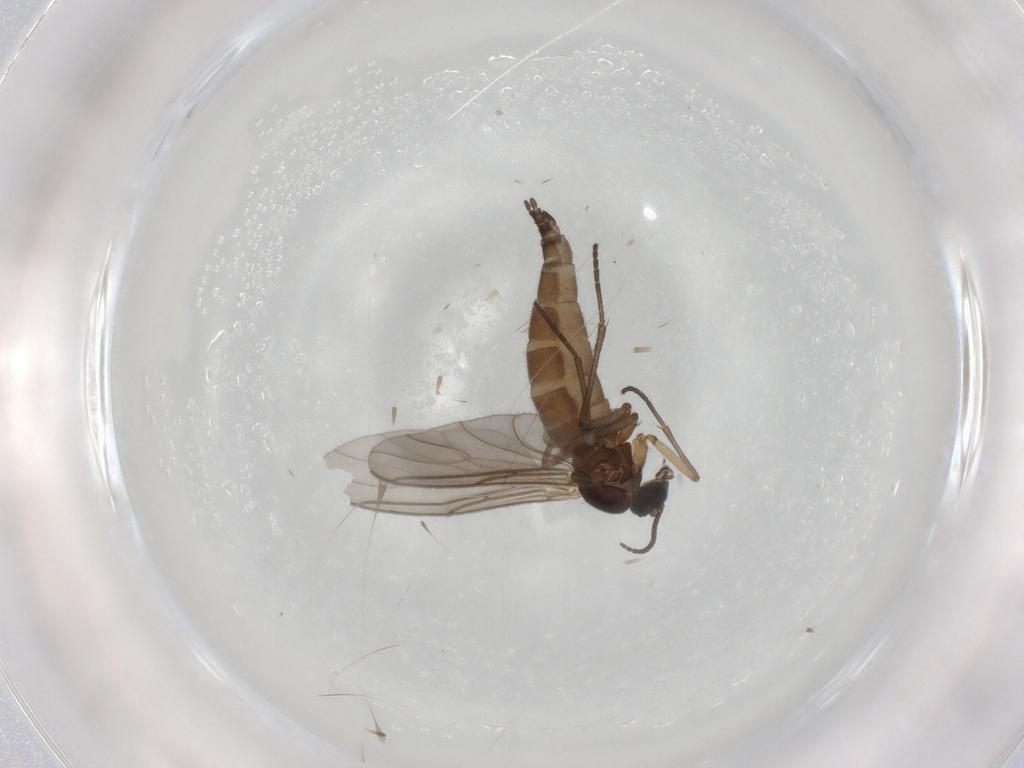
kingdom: Animalia
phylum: Arthropoda
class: Insecta
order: Diptera
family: Sciaridae
